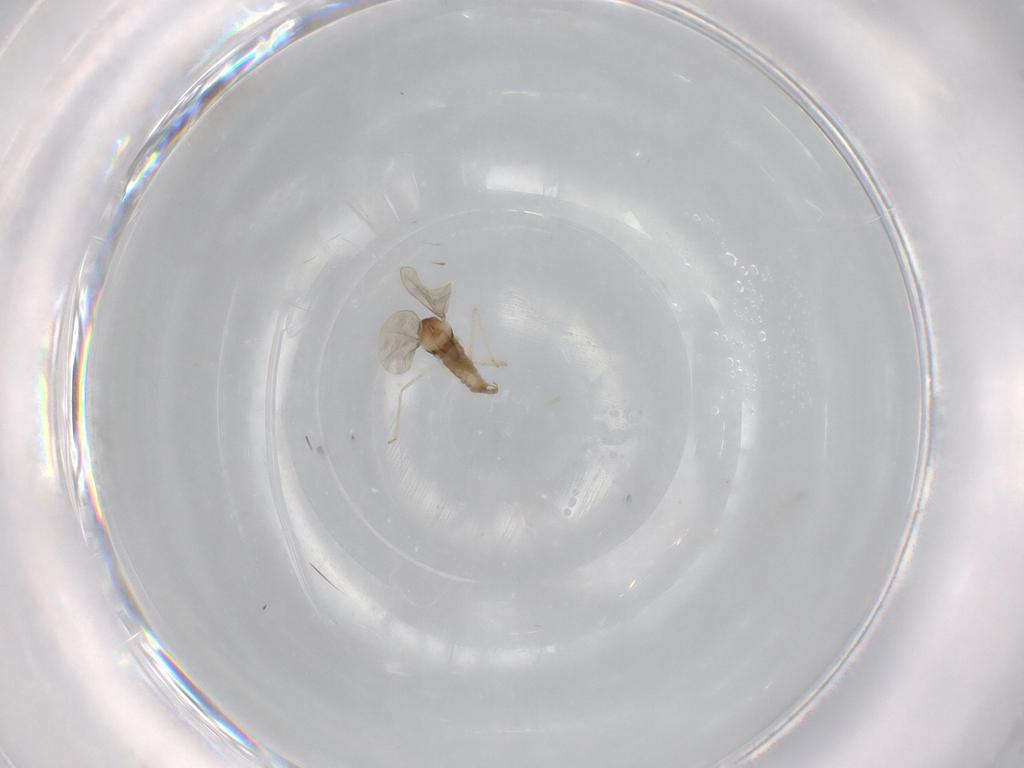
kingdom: Animalia
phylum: Arthropoda
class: Insecta
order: Diptera
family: Cecidomyiidae
